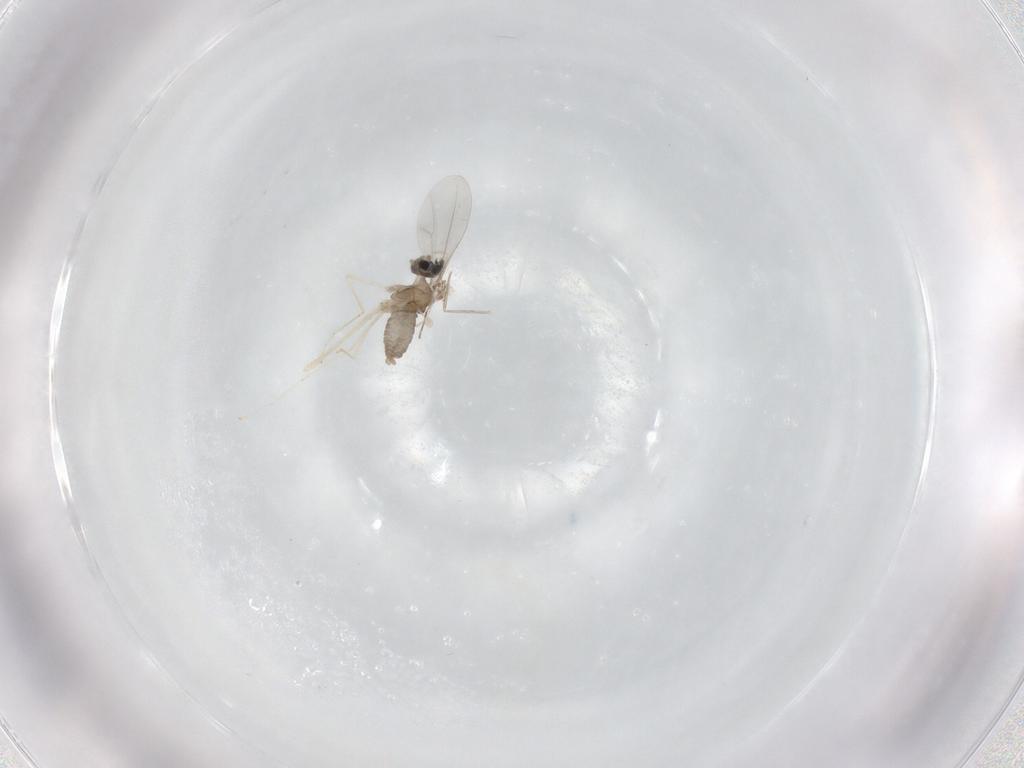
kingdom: Animalia
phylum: Arthropoda
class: Insecta
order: Diptera
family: Cecidomyiidae
